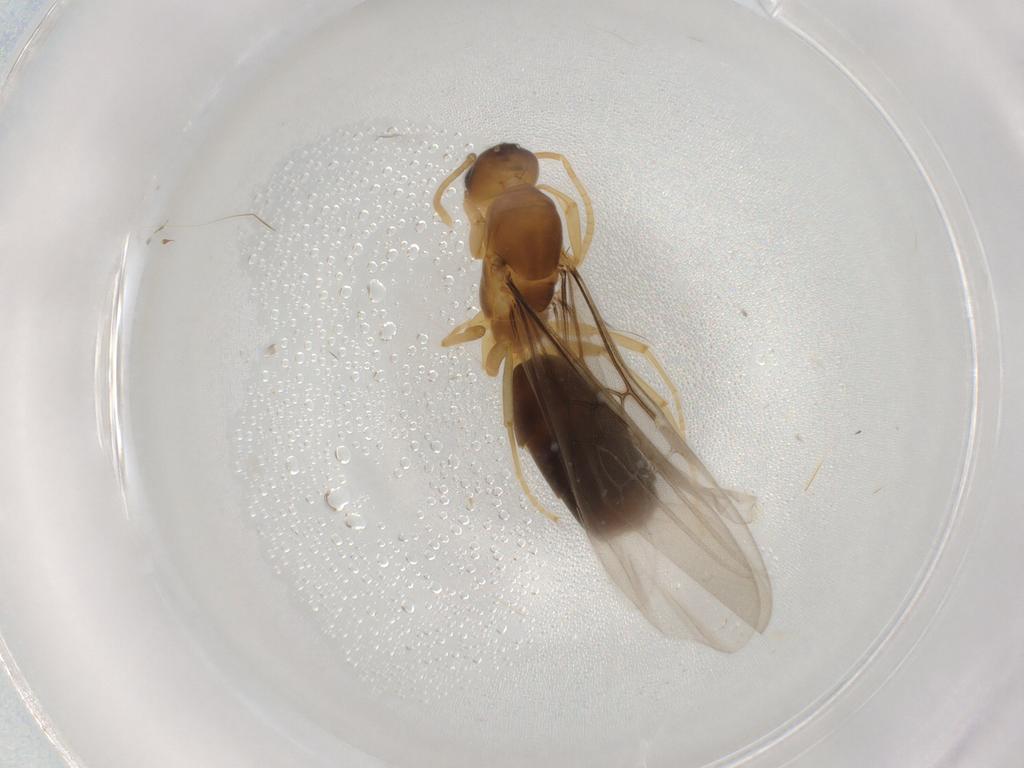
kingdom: Animalia
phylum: Arthropoda
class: Insecta
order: Hymenoptera
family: Formicidae
